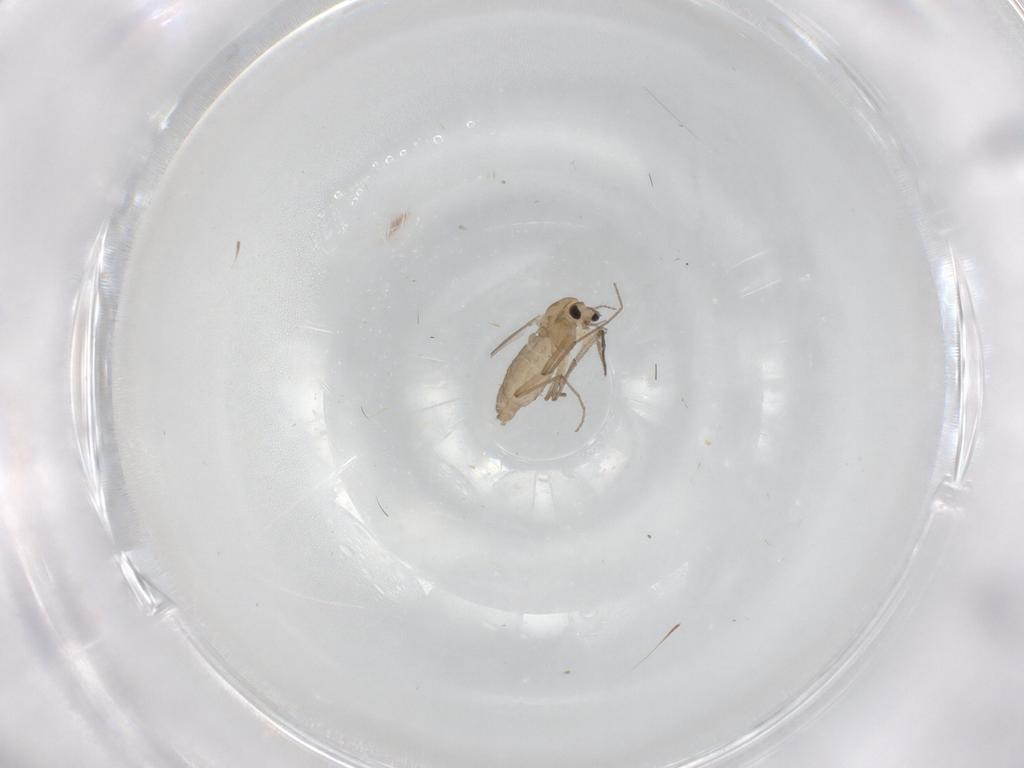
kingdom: Animalia
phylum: Arthropoda
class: Insecta
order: Diptera
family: Chironomidae
